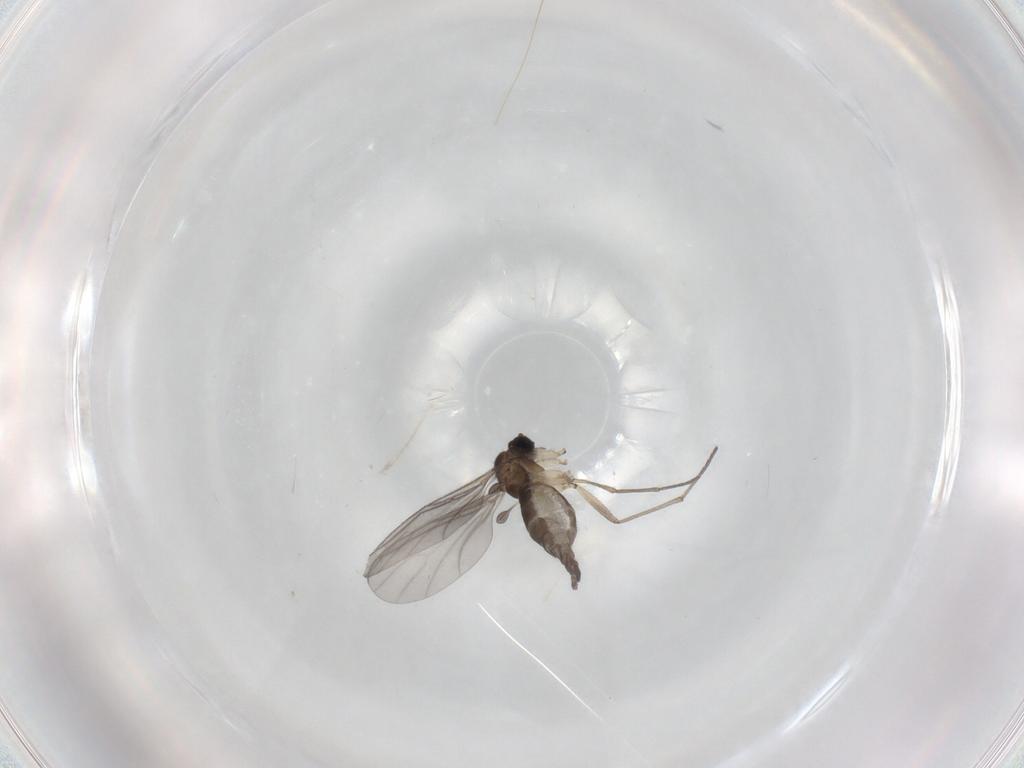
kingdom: Animalia
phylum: Arthropoda
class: Insecta
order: Diptera
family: Sciaridae
